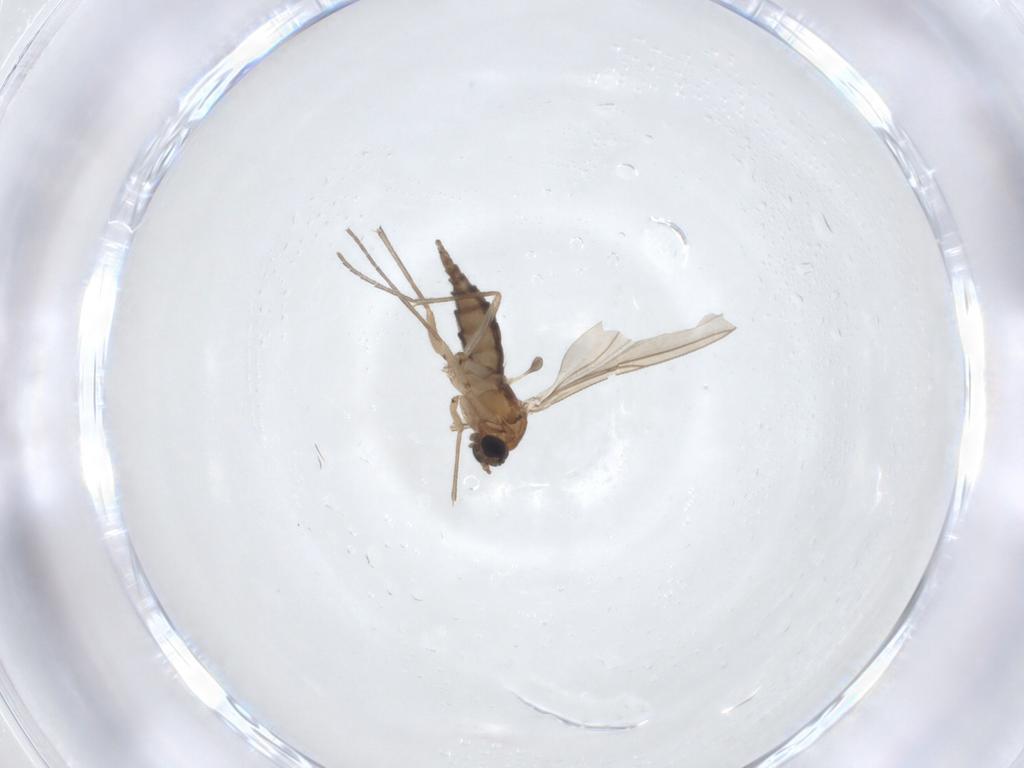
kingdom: Animalia
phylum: Arthropoda
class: Insecta
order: Diptera
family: Sciaridae
